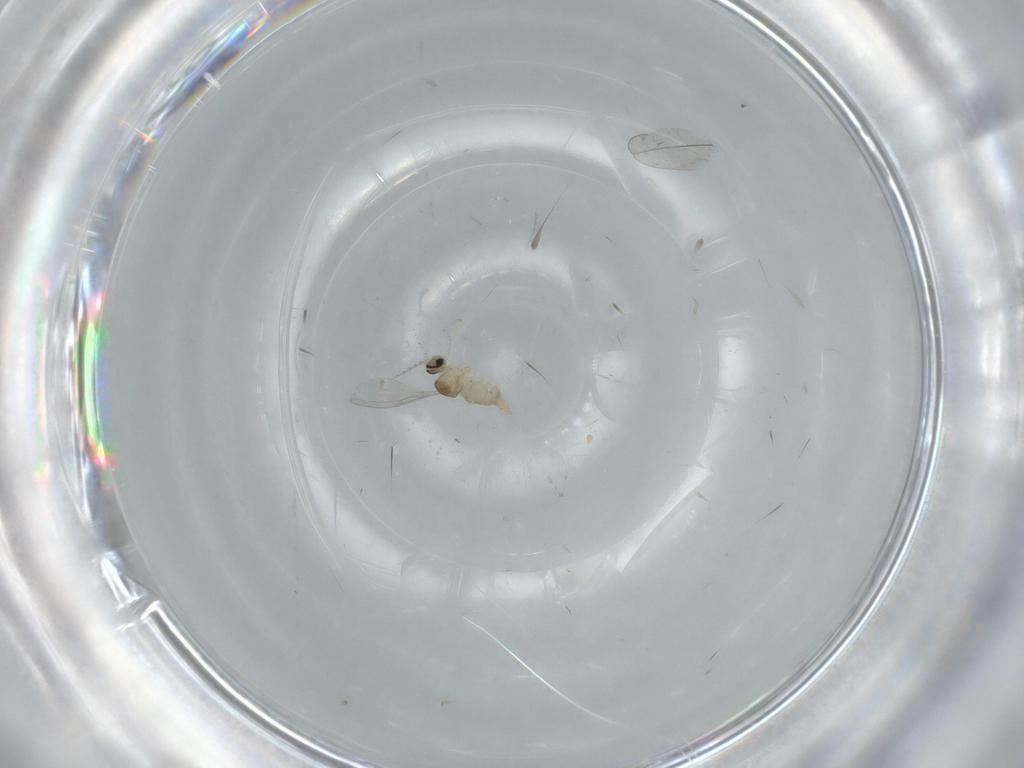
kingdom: Animalia
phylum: Arthropoda
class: Insecta
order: Diptera
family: Cecidomyiidae
